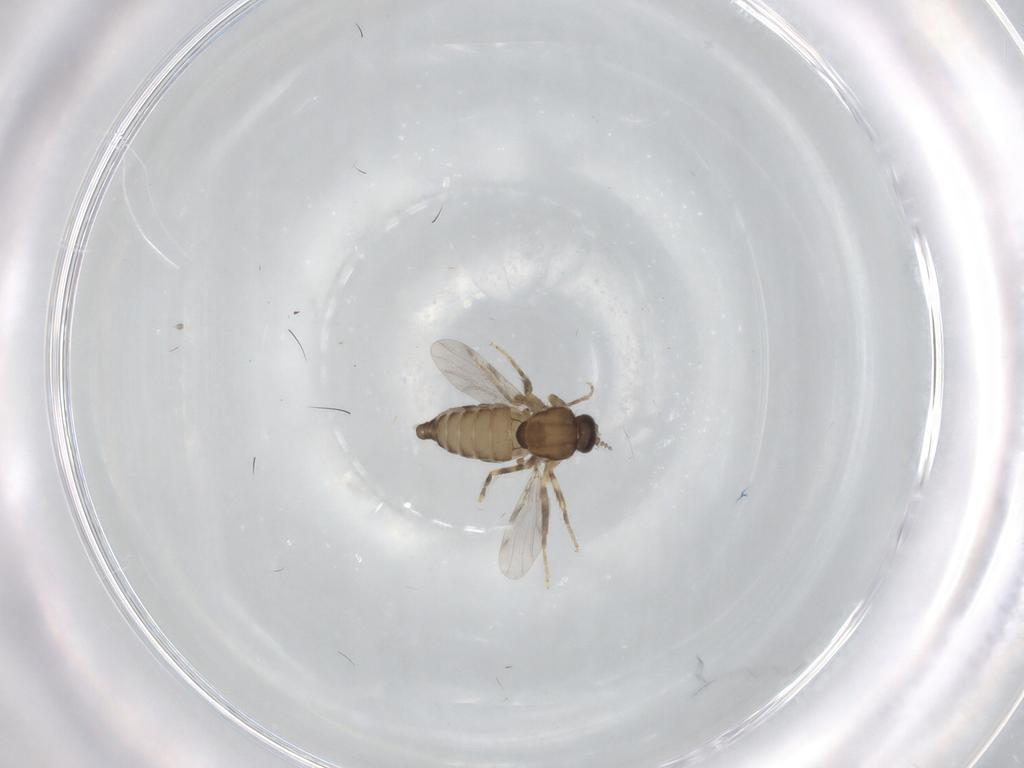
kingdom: Animalia
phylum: Arthropoda
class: Insecta
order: Diptera
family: Ceratopogonidae
